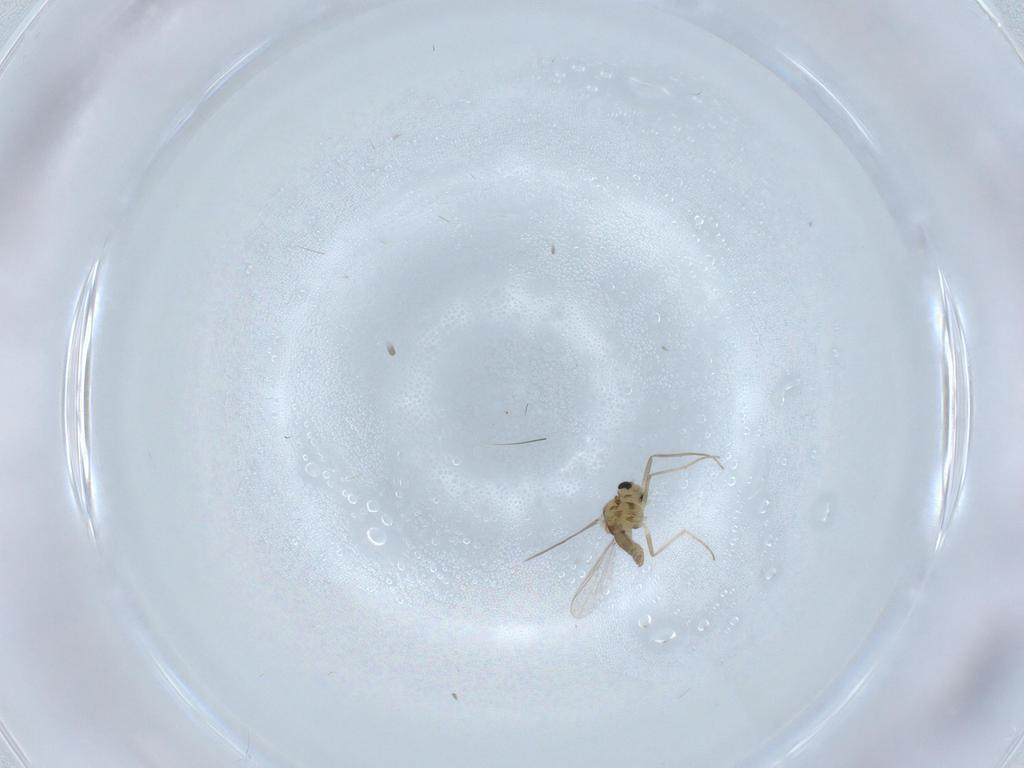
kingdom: Animalia
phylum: Arthropoda
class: Insecta
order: Diptera
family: Chironomidae
